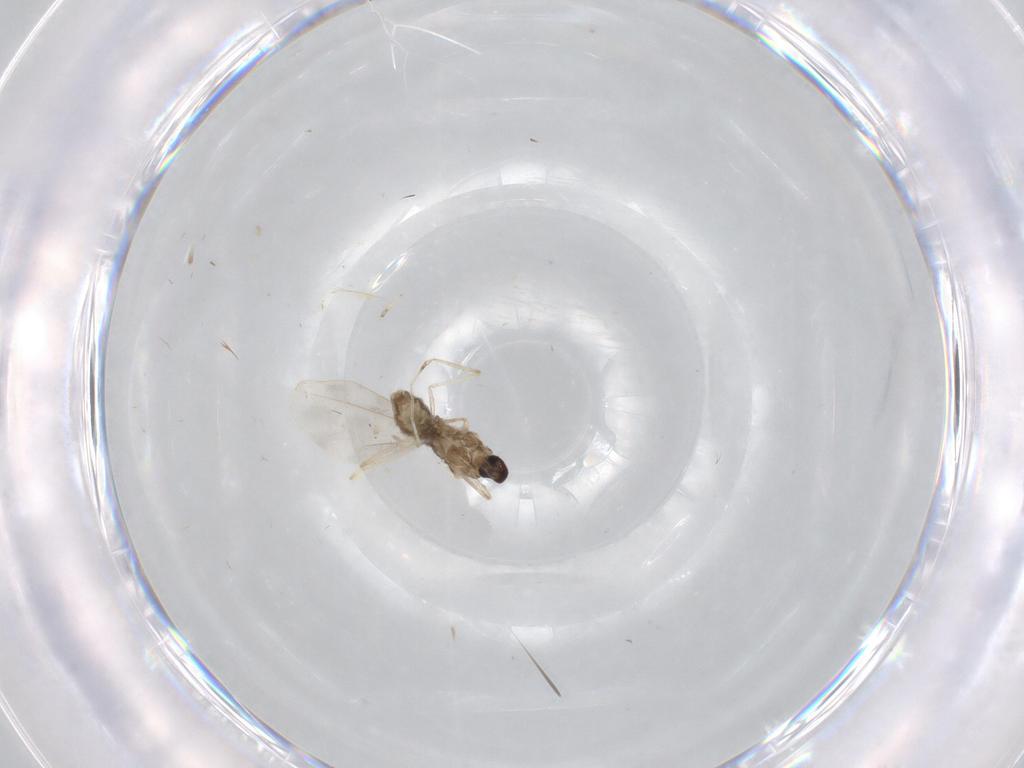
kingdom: Animalia
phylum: Arthropoda
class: Insecta
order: Diptera
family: Cecidomyiidae
